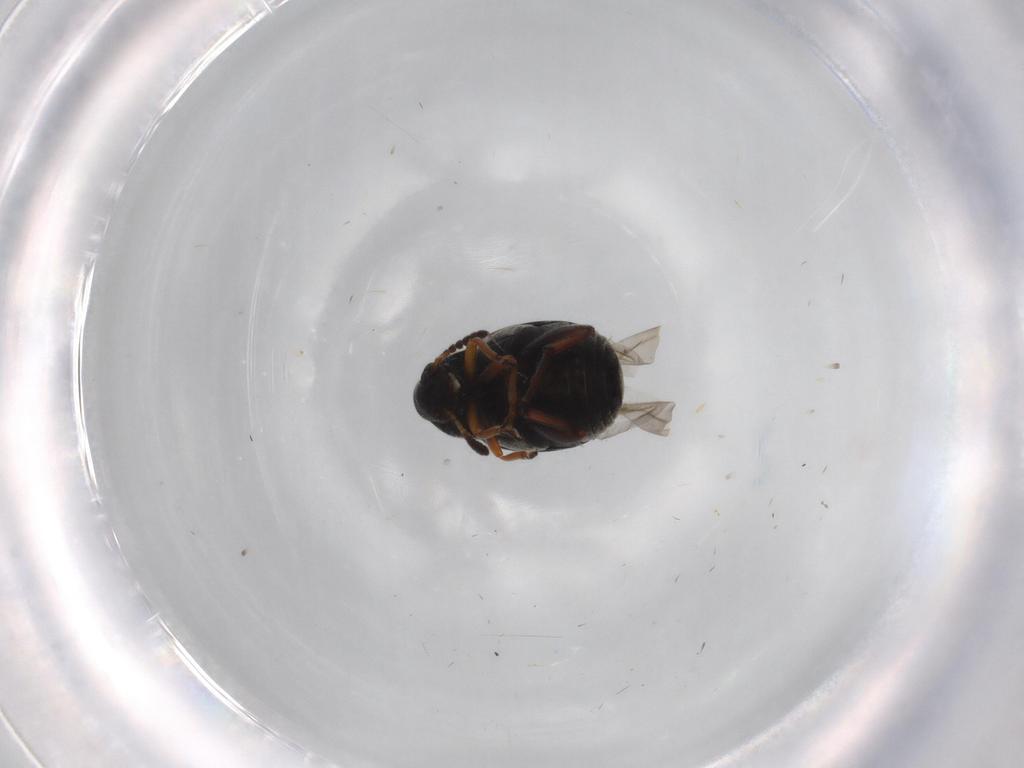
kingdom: Animalia
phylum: Arthropoda
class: Insecta
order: Coleoptera
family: Chrysomelidae
